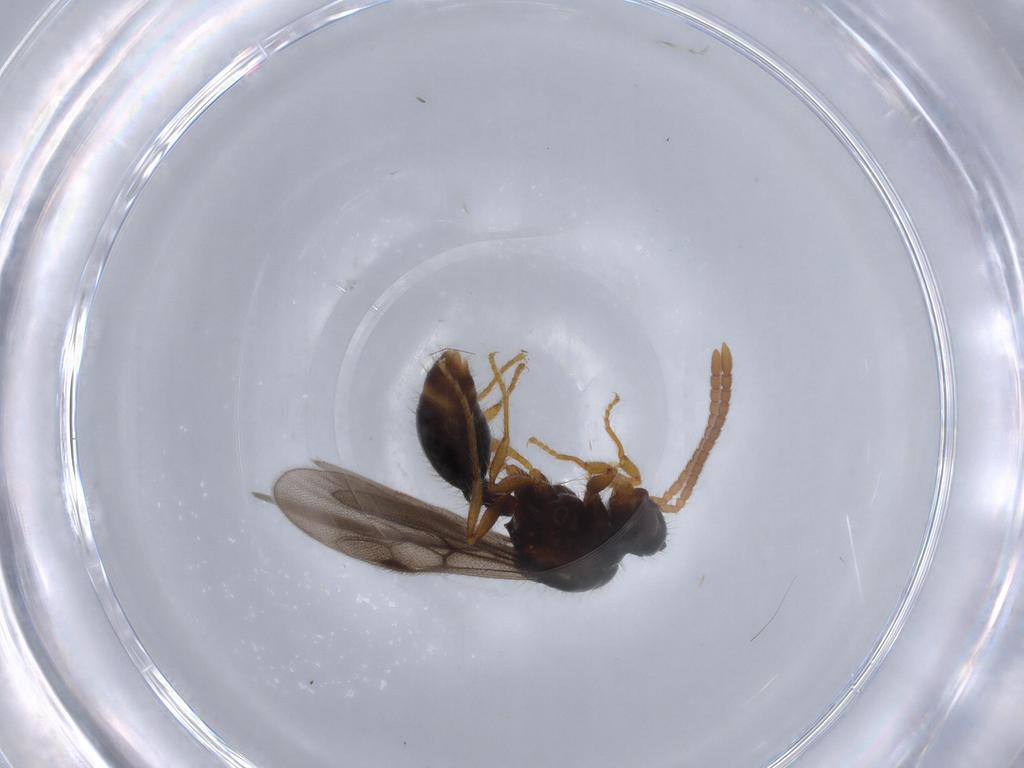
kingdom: Animalia
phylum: Arthropoda
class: Insecta
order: Hymenoptera
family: Formicidae
